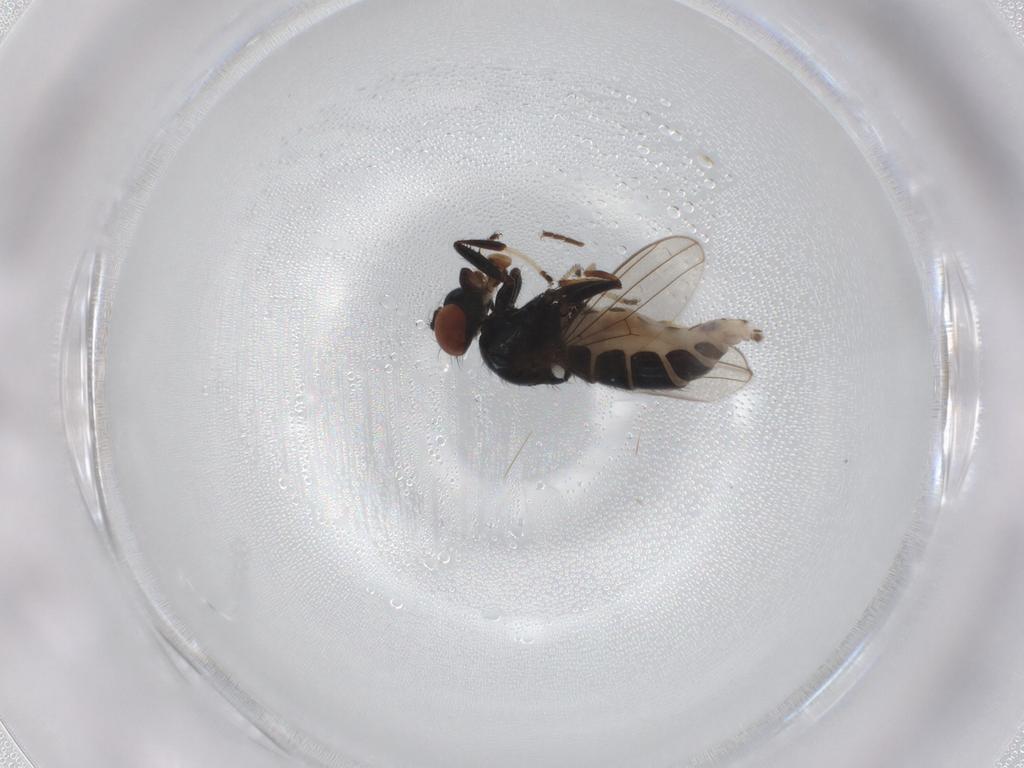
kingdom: Animalia
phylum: Arthropoda
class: Insecta
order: Diptera
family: Ephydridae
